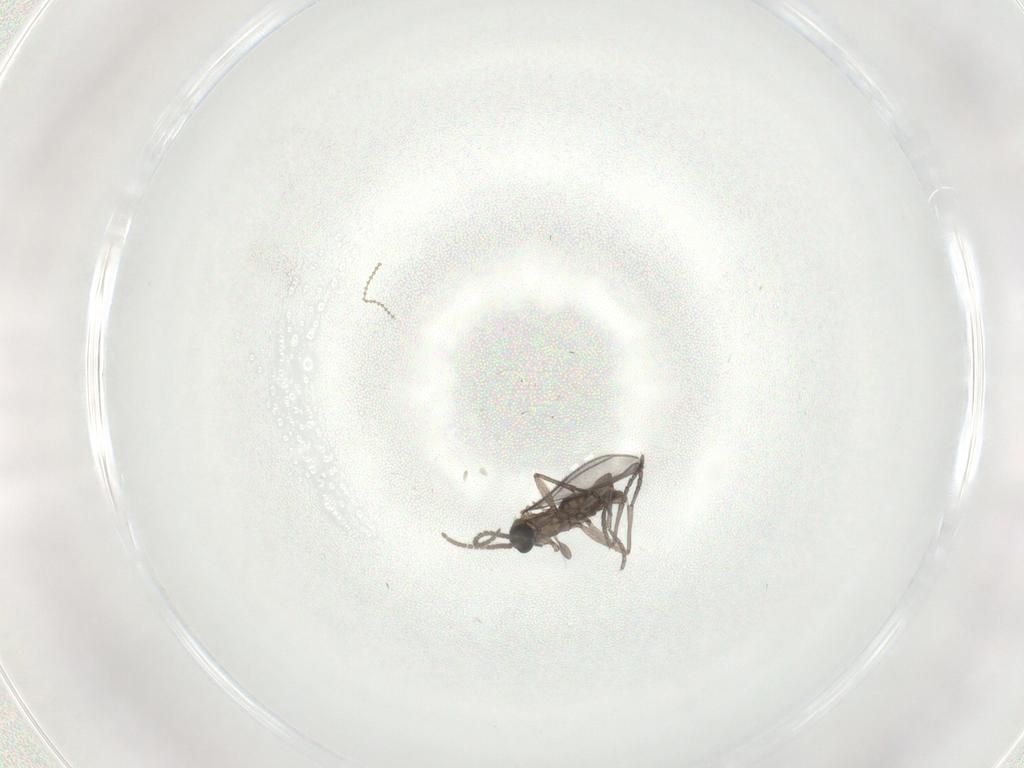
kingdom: Animalia
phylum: Arthropoda
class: Insecta
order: Diptera
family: Sciaridae
